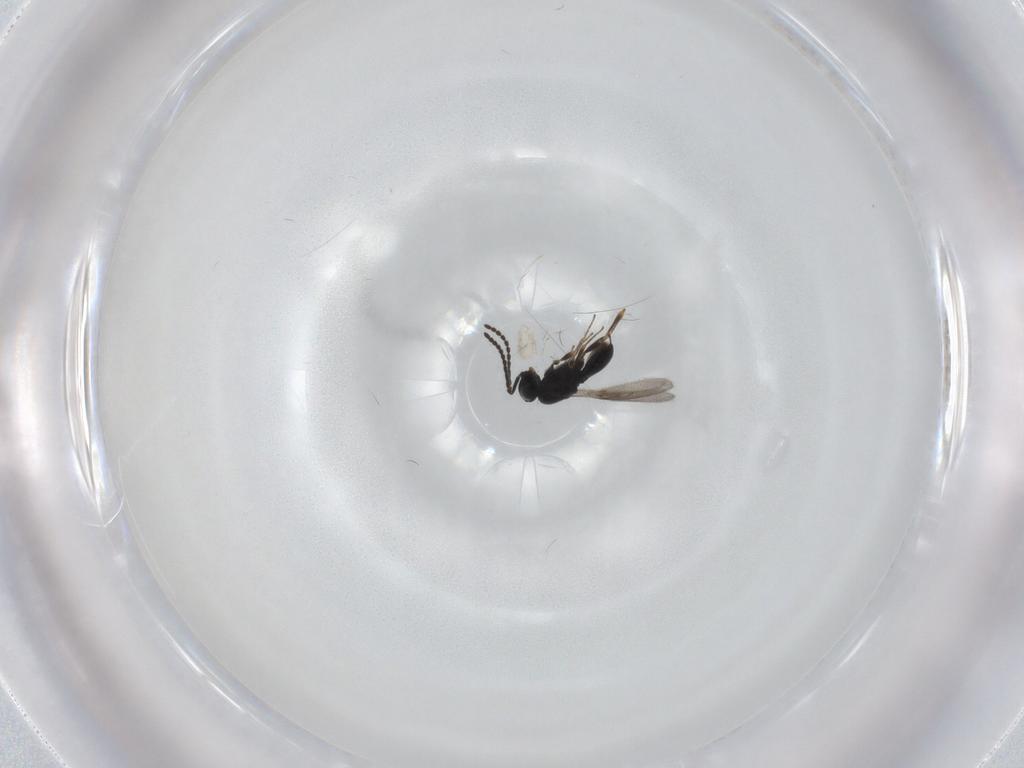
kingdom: Animalia
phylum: Arthropoda
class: Insecta
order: Hymenoptera
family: Scelionidae
